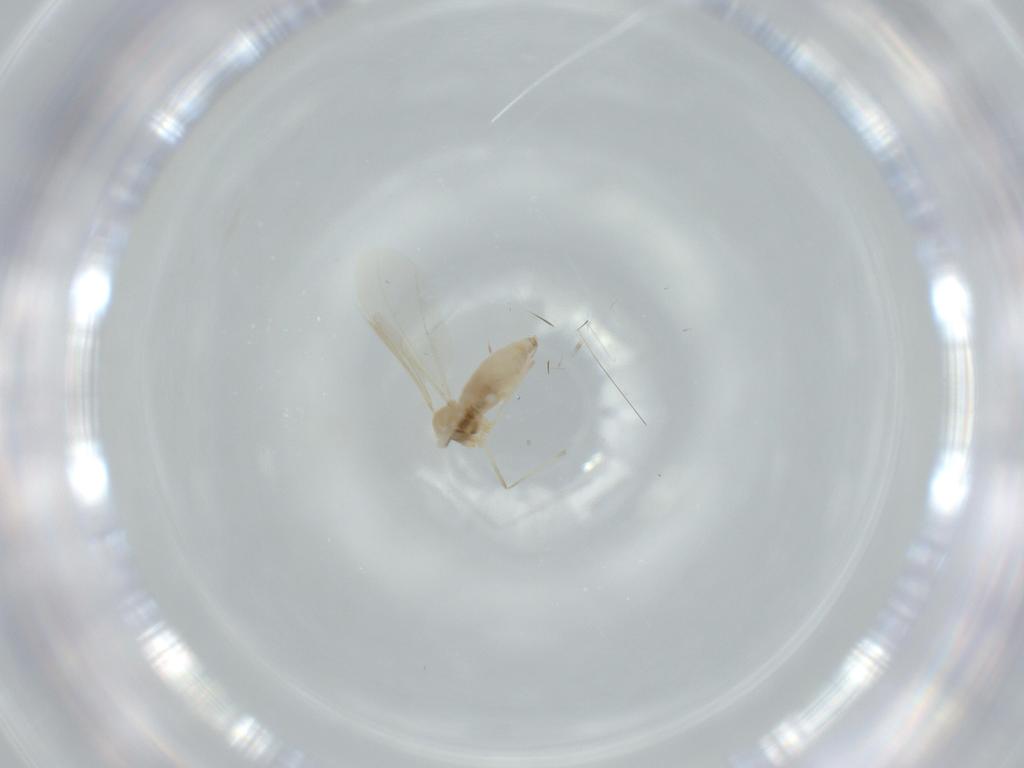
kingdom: Animalia
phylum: Arthropoda
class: Insecta
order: Diptera
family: Cecidomyiidae
